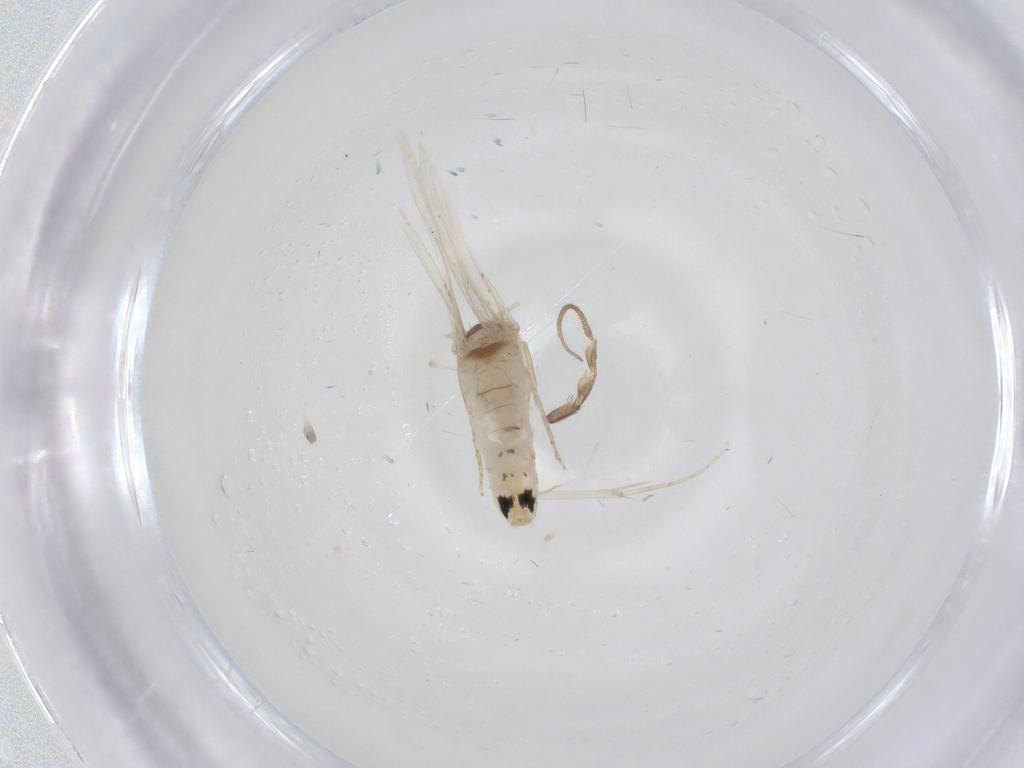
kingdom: Animalia
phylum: Arthropoda
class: Insecta
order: Lepidoptera
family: Dryadaulidae
